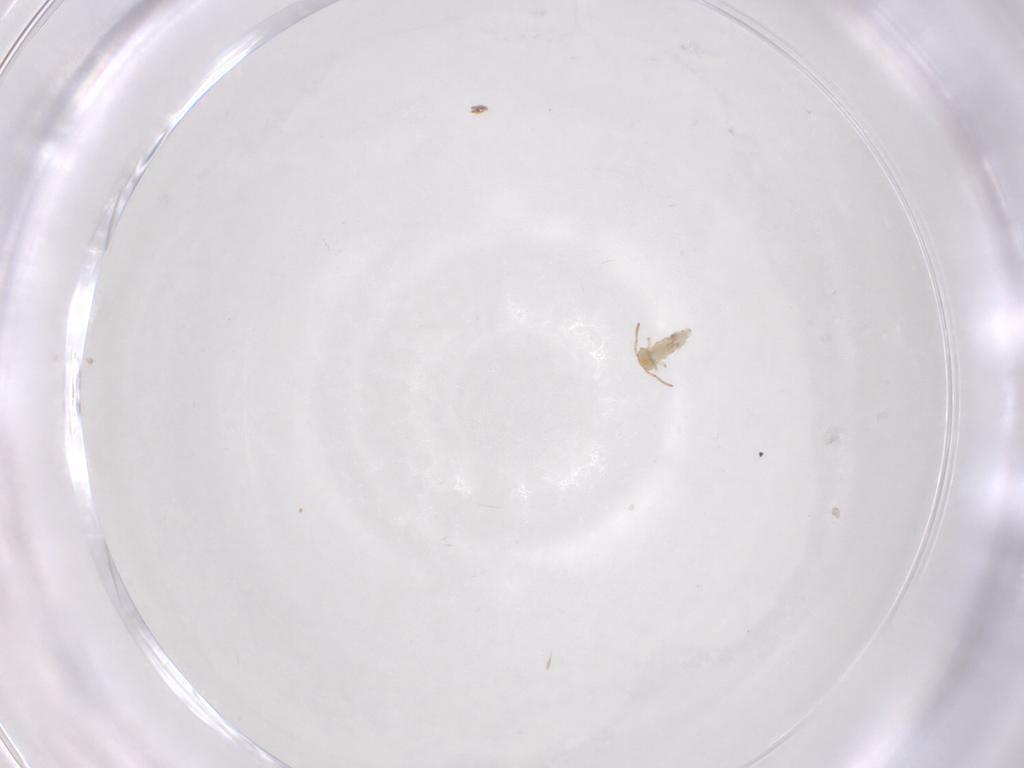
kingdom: Animalia
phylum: Arthropoda
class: Collembola
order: Symphypleona
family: Bourletiellidae
